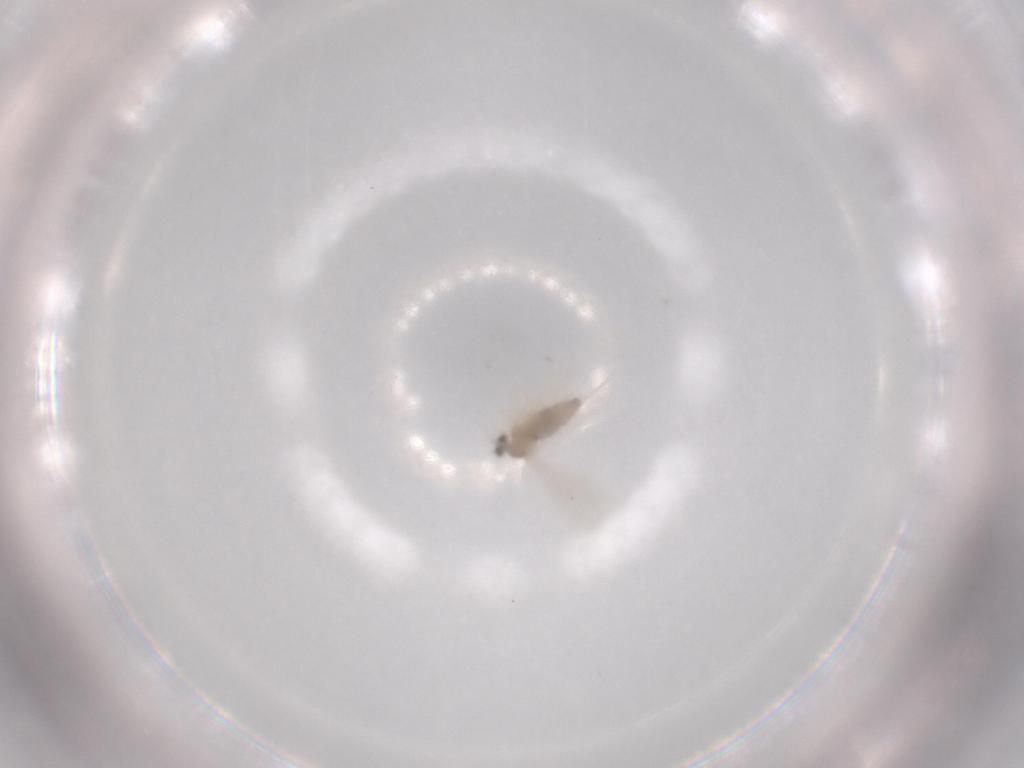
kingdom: Animalia
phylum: Arthropoda
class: Insecta
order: Diptera
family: Cecidomyiidae
